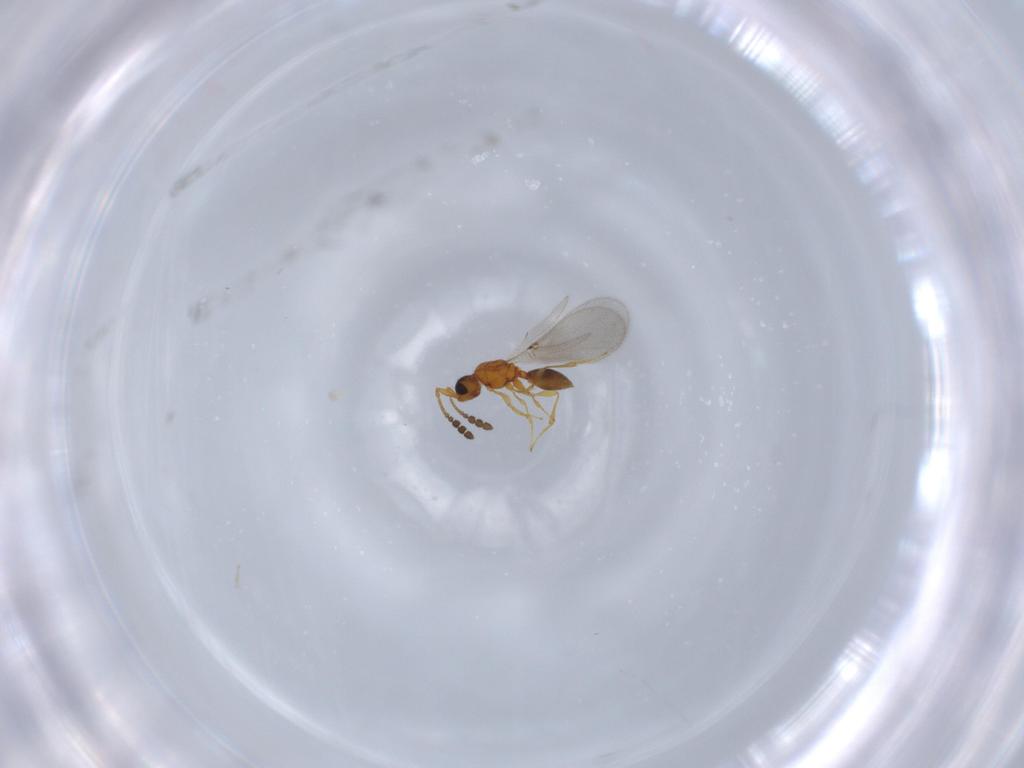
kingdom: Animalia
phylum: Arthropoda
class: Insecta
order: Hymenoptera
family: Diapriidae
